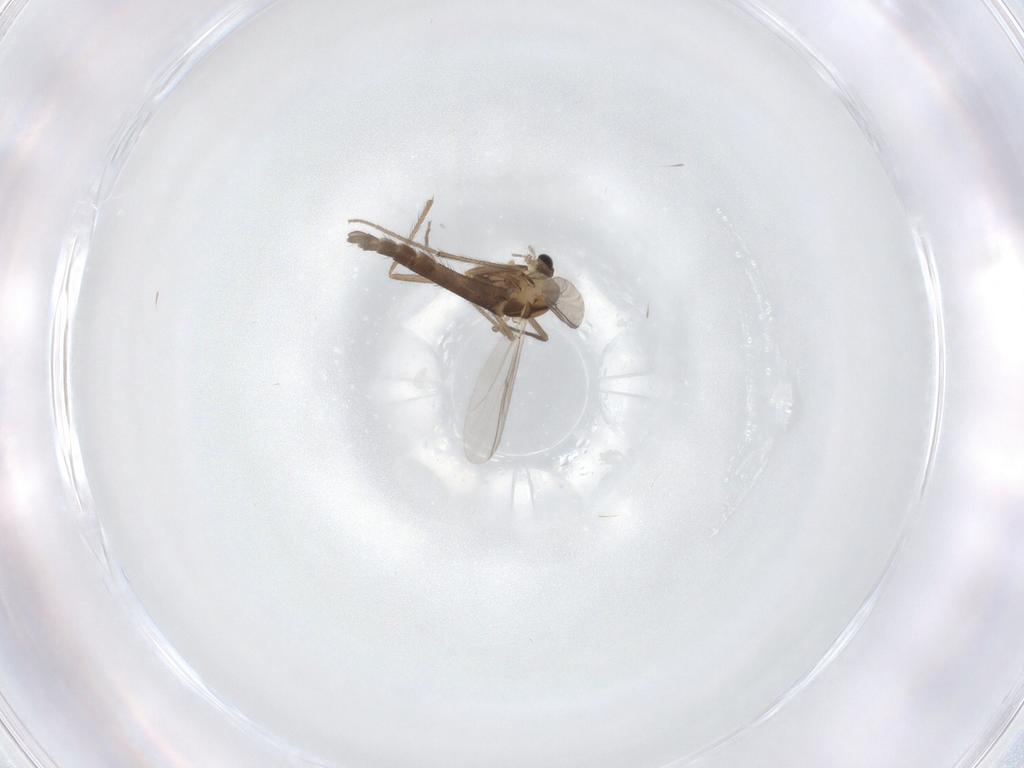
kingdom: Animalia
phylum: Arthropoda
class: Insecta
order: Diptera
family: Chironomidae
